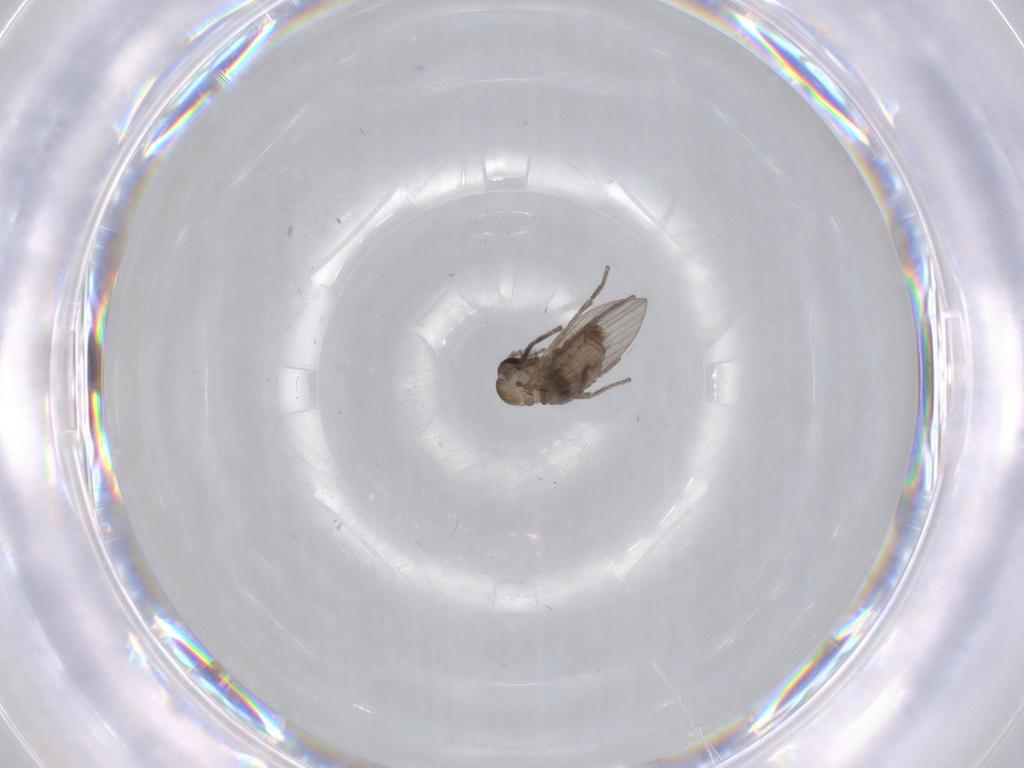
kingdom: Animalia
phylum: Arthropoda
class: Insecta
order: Diptera
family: Psychodidae
